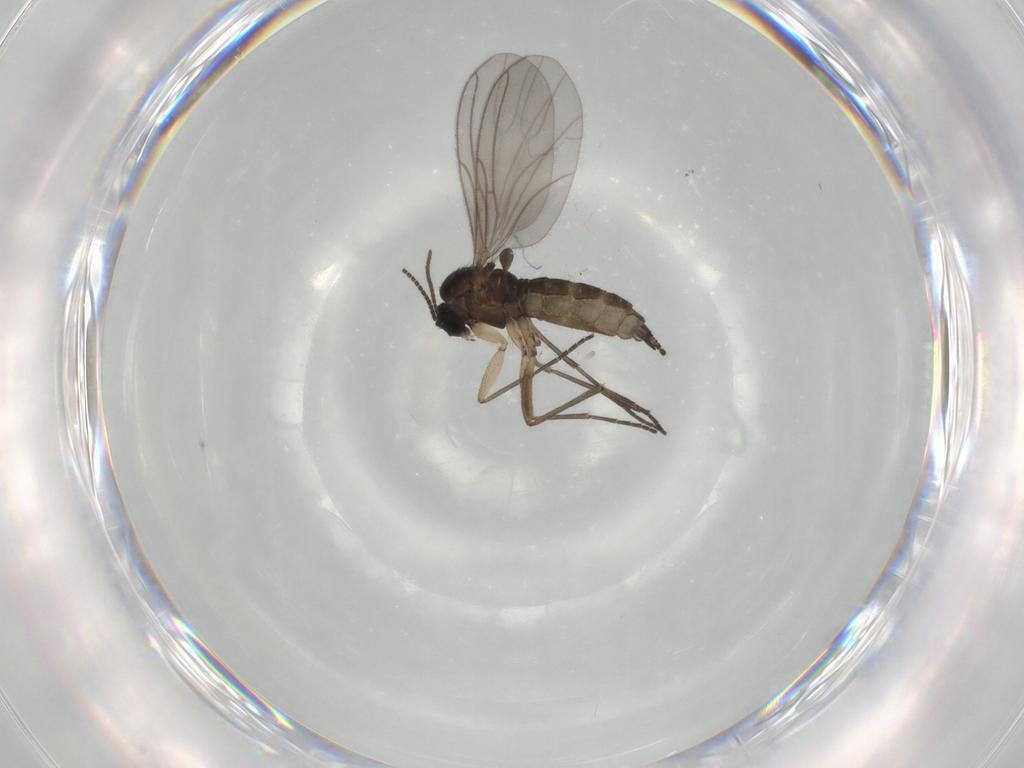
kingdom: Animalia
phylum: Arthropoda
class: Insecta
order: Diptera
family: Sciaridae
